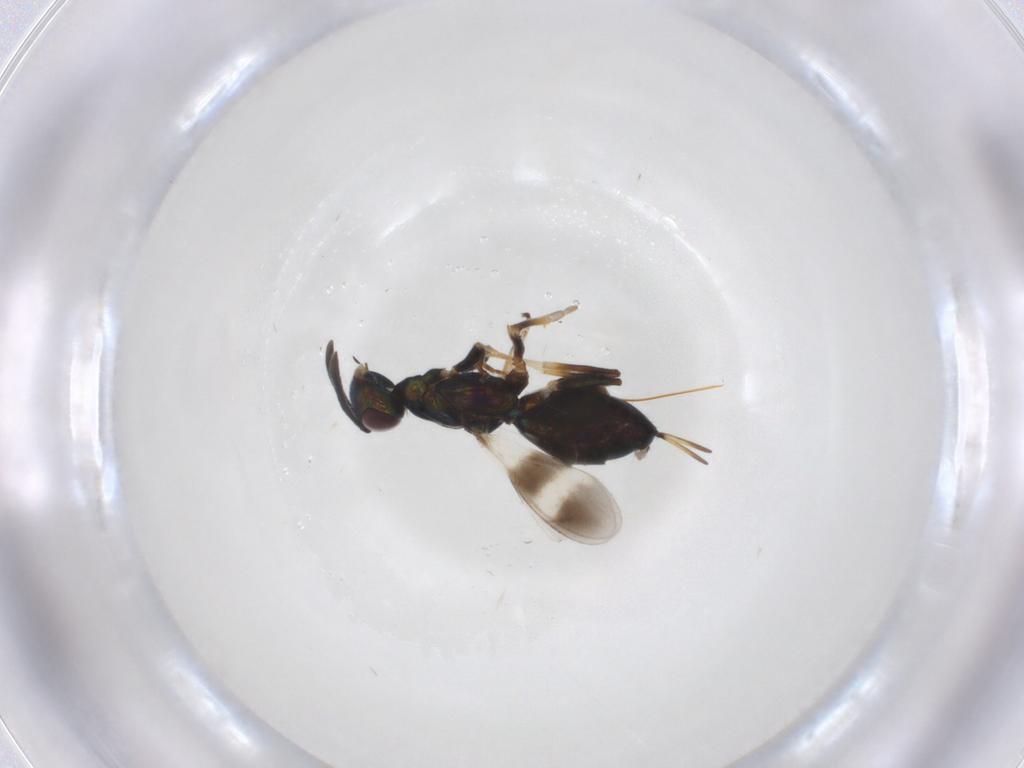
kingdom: Animalia
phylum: Arthropoda
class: Insecta
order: Hymenoptera
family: Eupelmidae
